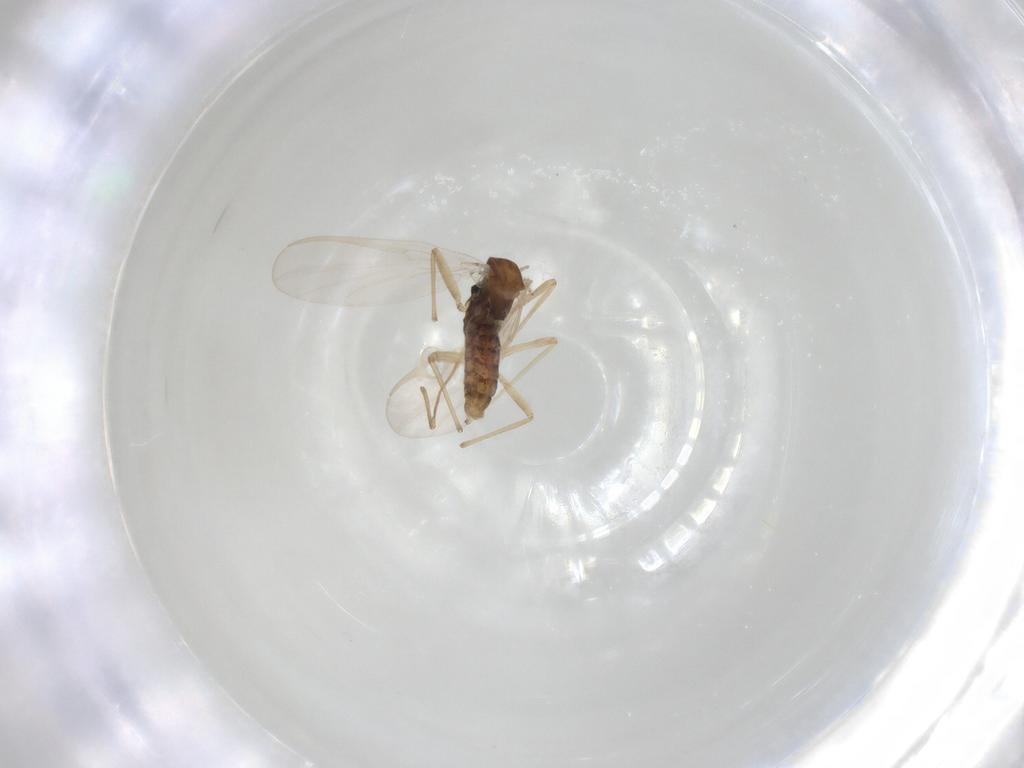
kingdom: Animalia
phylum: Arthropoda
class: Insecta
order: Diptera
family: Chironomidae
